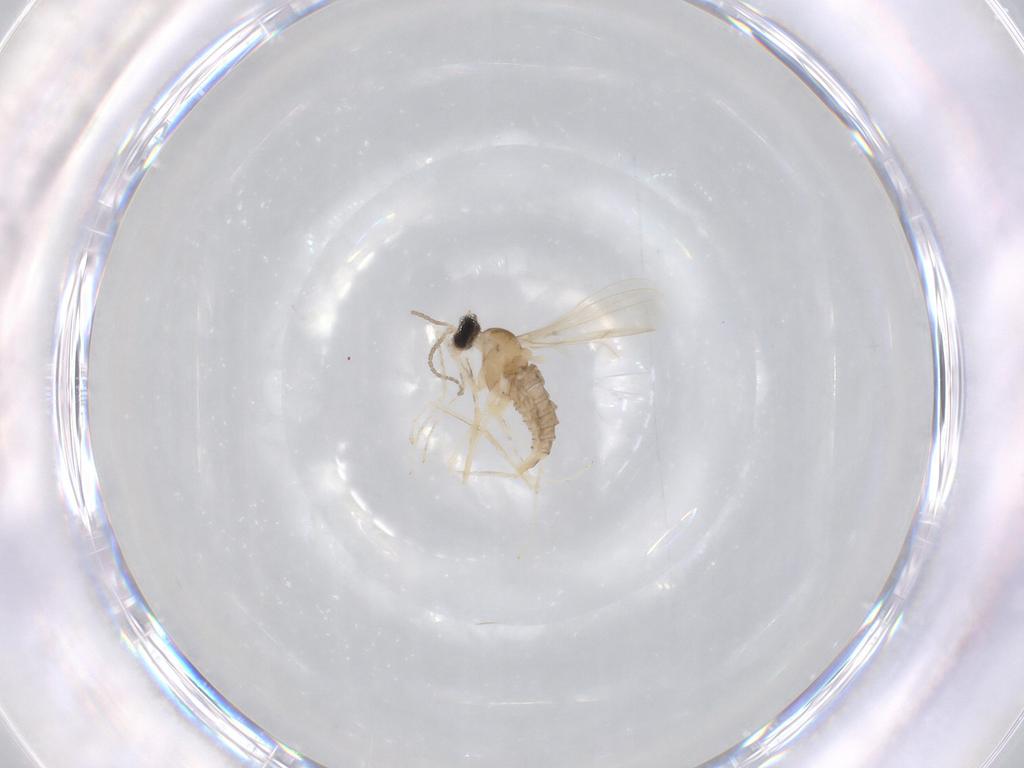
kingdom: Animalia
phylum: Arthropoda
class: Insecta
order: Diptera
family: Cecidomyiidae
